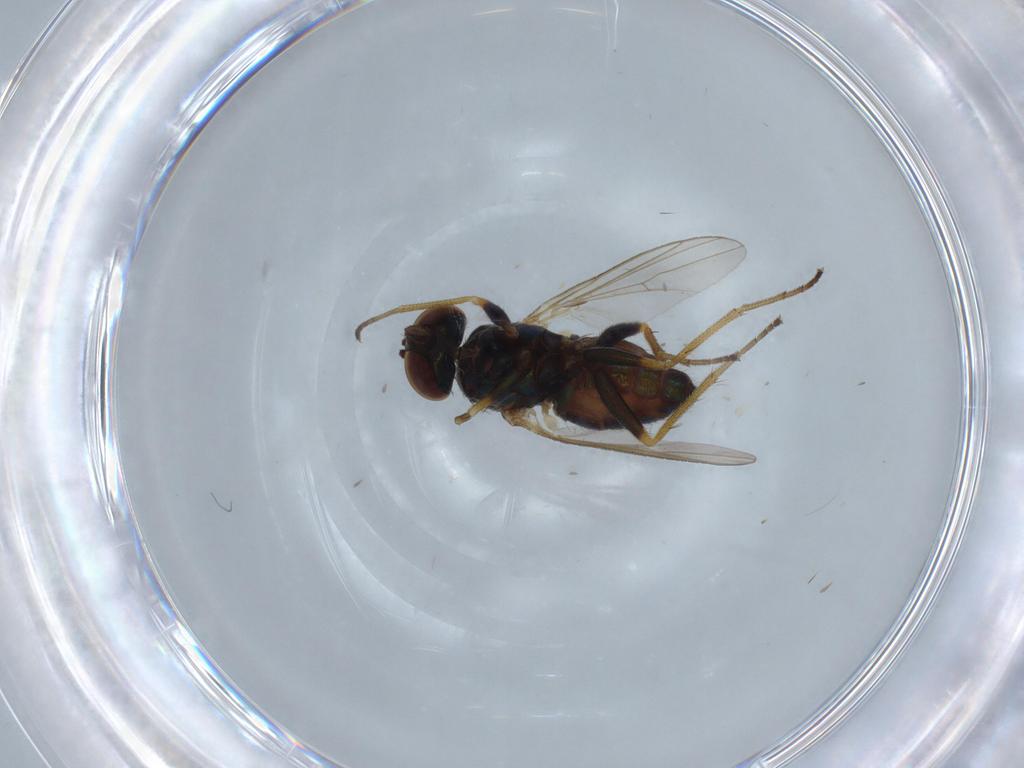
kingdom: Animalia
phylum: Arthropoda
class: Insecta
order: Diptera
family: Dolichopodidae
